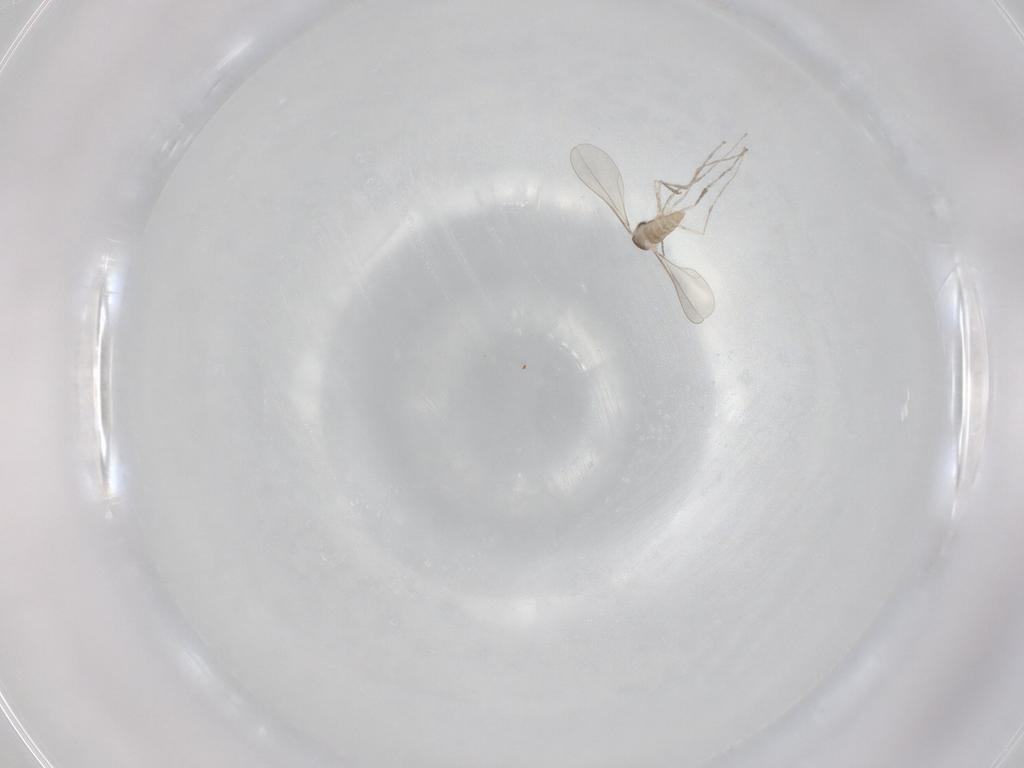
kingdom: Animalia
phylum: Arthropoda
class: Insecta
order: Diptera
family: Cecidomyiidae
